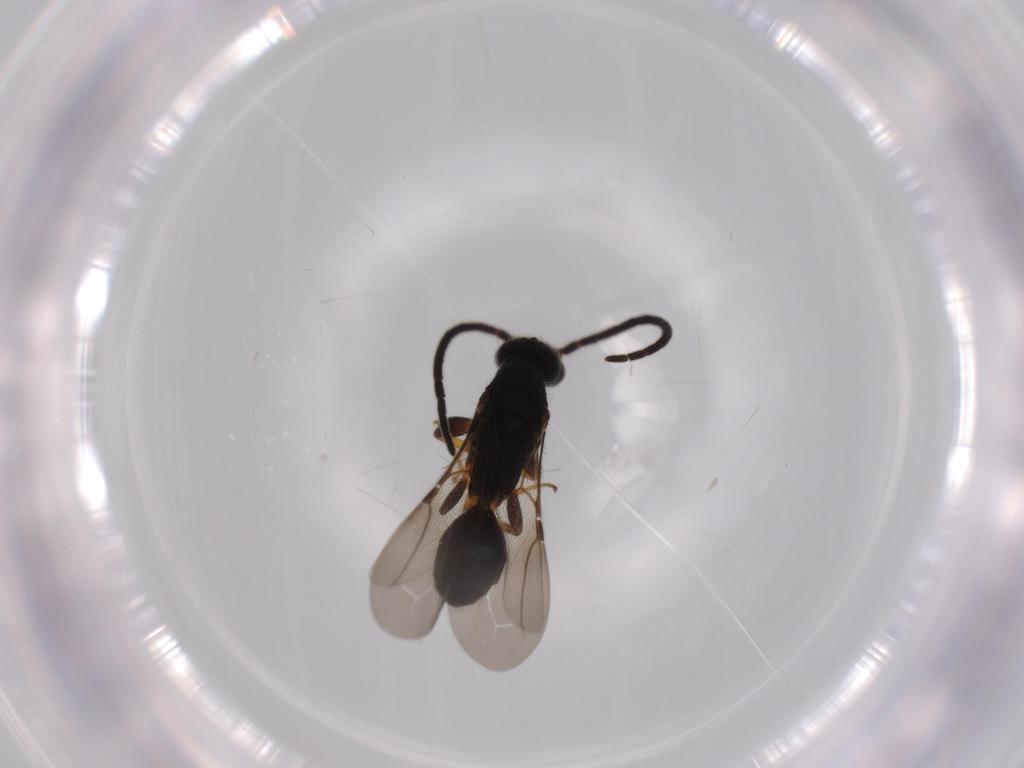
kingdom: Animalia
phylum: Arthropoda
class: Insecta
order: Hymenoptera
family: Bethylidae
